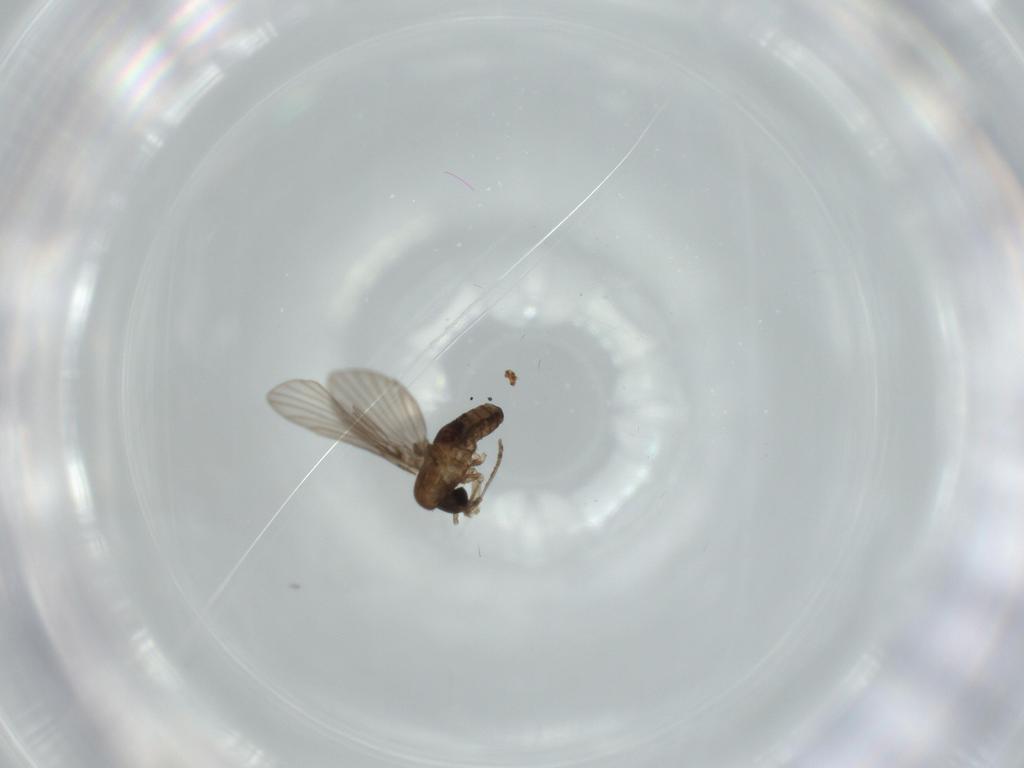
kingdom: Animalia
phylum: Arthropoda
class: Insecta
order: Diptera
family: Psychodidae
